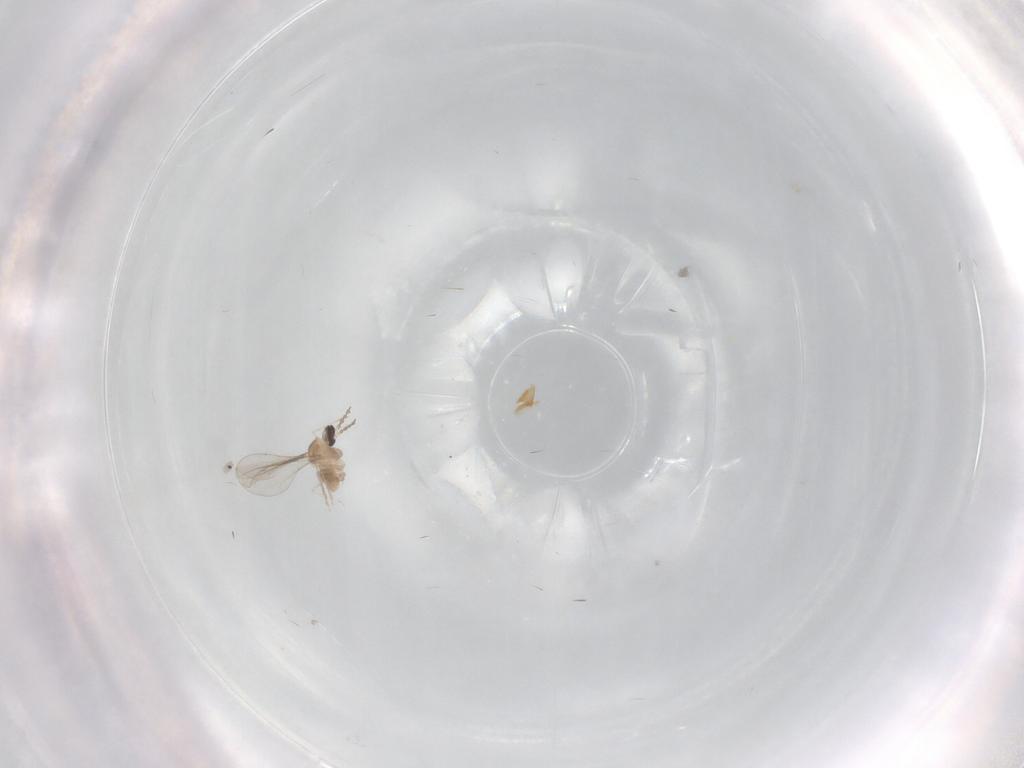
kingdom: Animalia
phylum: Arthropoda
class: Insecta
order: Diptera
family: Cecidomyiidae
